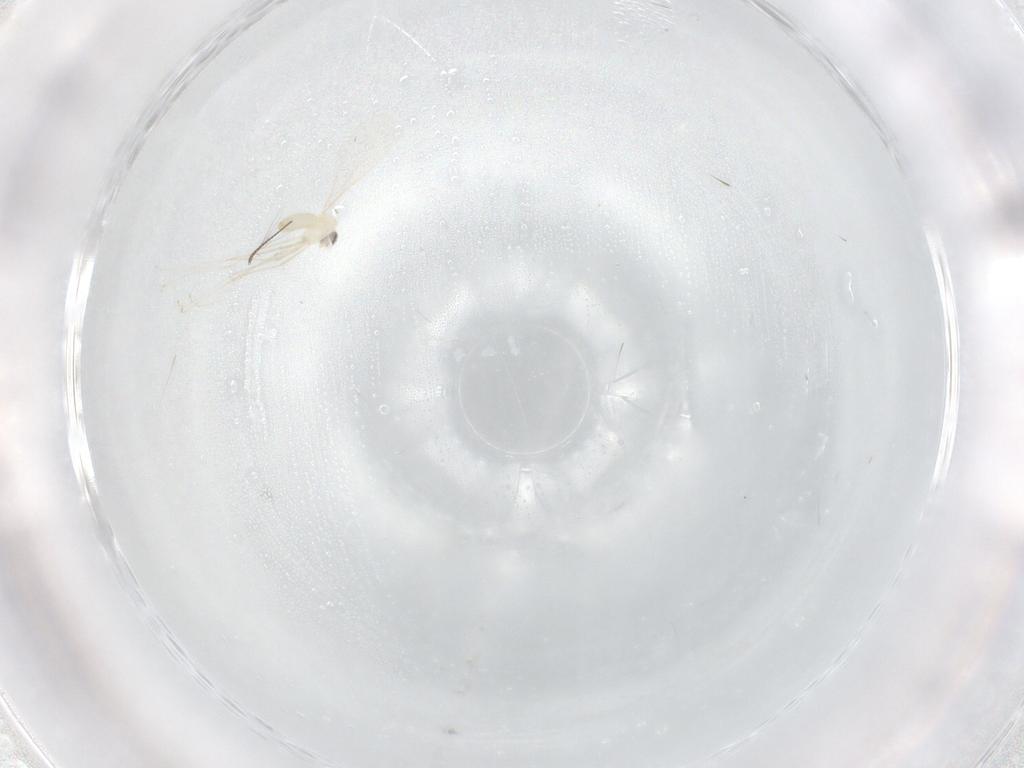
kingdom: Animalia
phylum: Arthropoda
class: Insecta
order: Diptera
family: Chironomidae
